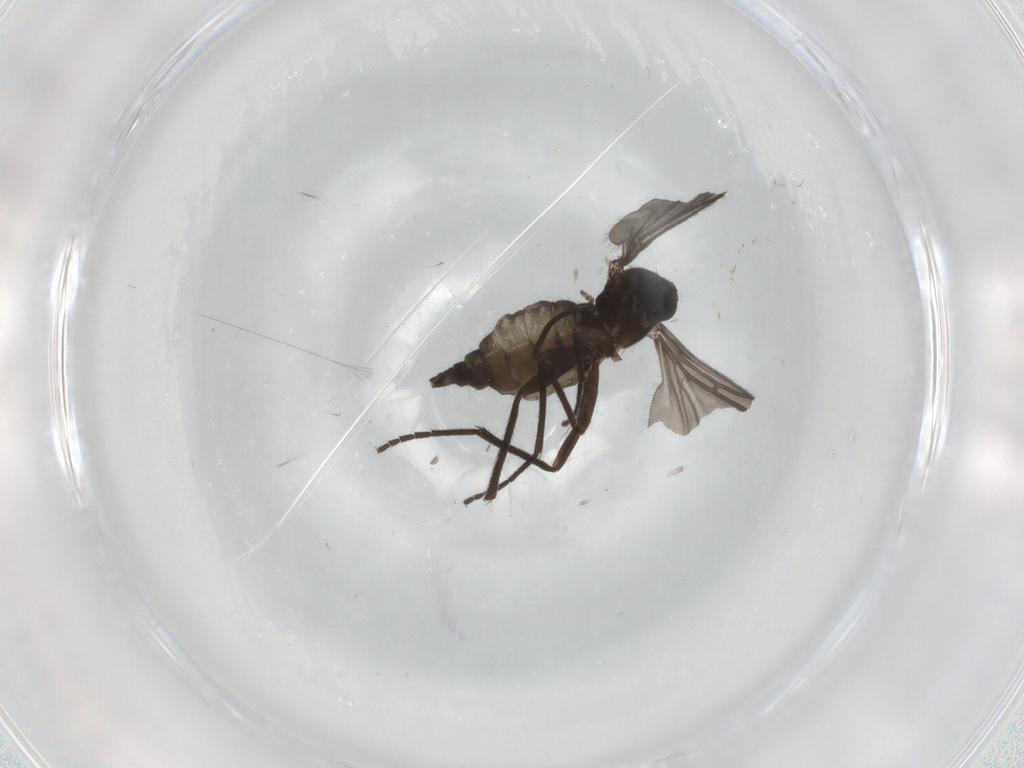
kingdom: Animalia
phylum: Arthropoda
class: Insecta
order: Diptera
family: Sciaridae
